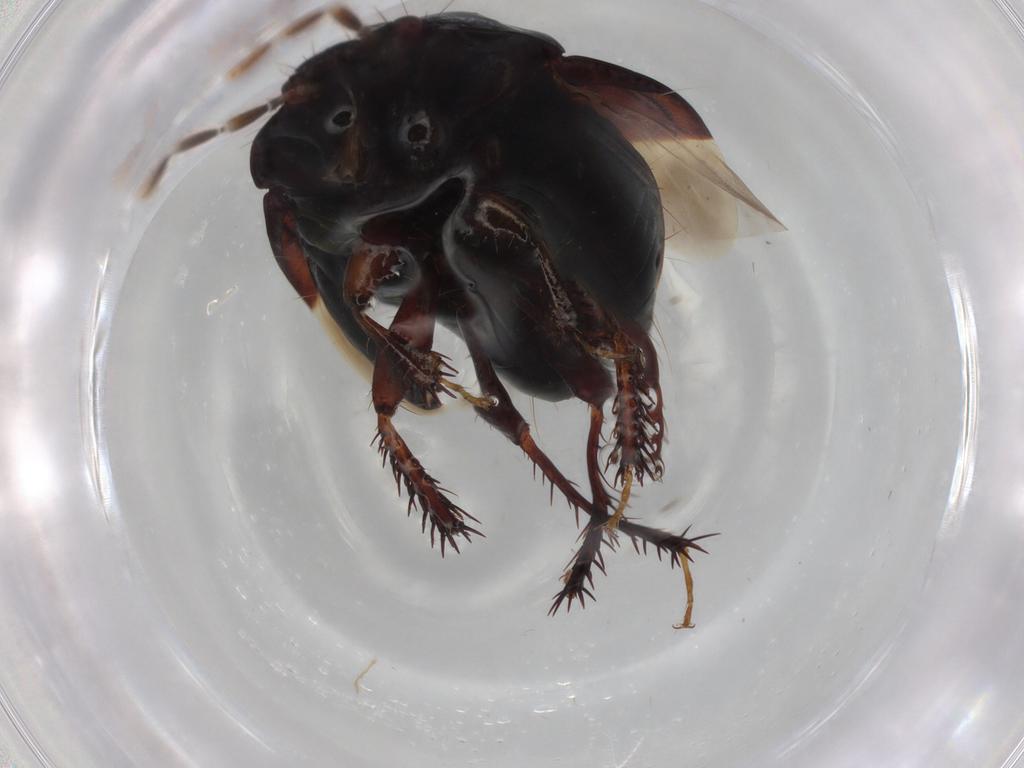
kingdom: Animalia
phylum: Arthropoda
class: Insecta
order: Hemiptera
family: Cydnidae
